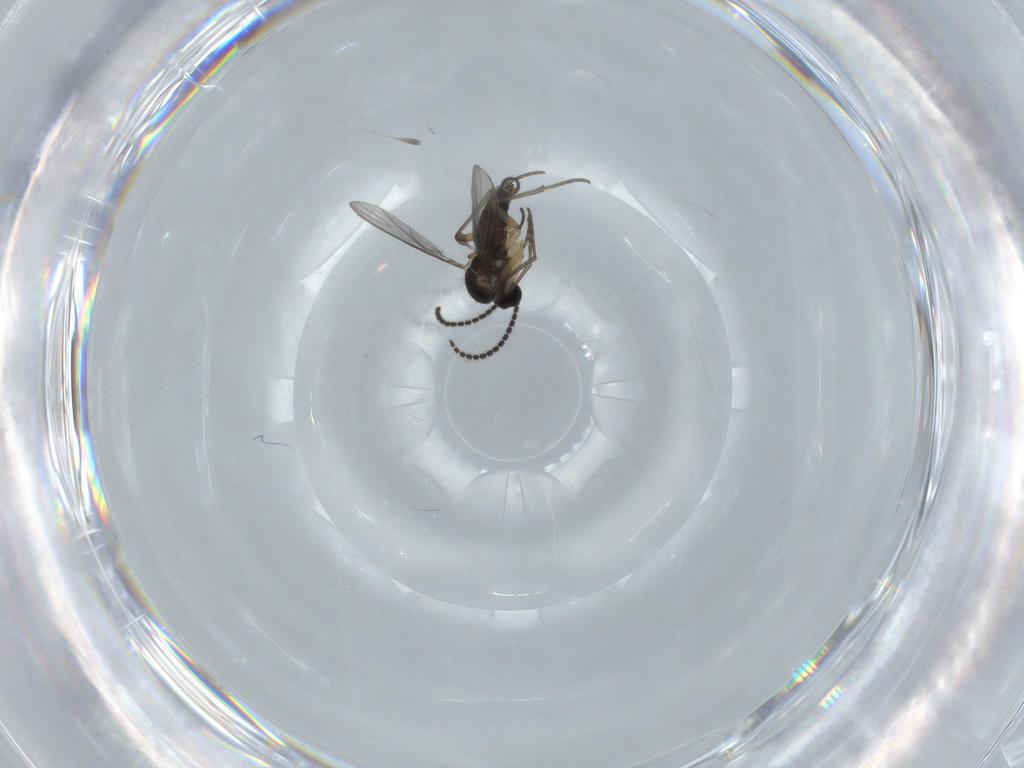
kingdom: Animalia
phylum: Arthropoda
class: Insecta
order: Diptera
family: Sciaridae
